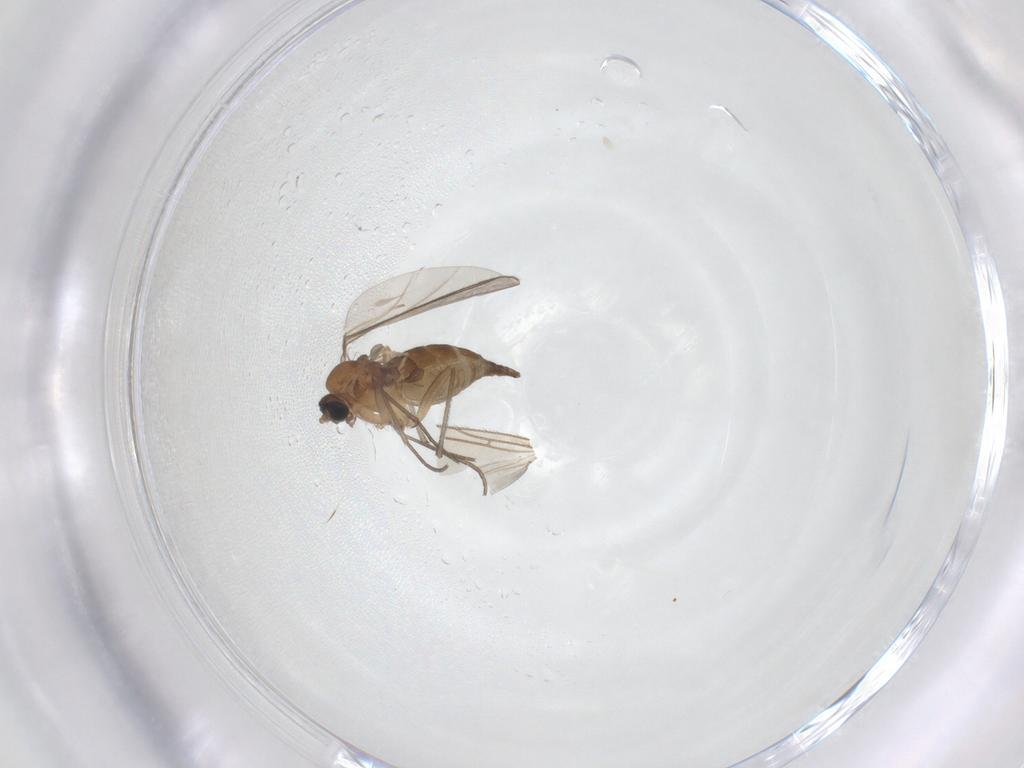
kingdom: Animalia
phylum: Arthropoda
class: Insecta
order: Diptera
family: Sciaridae
